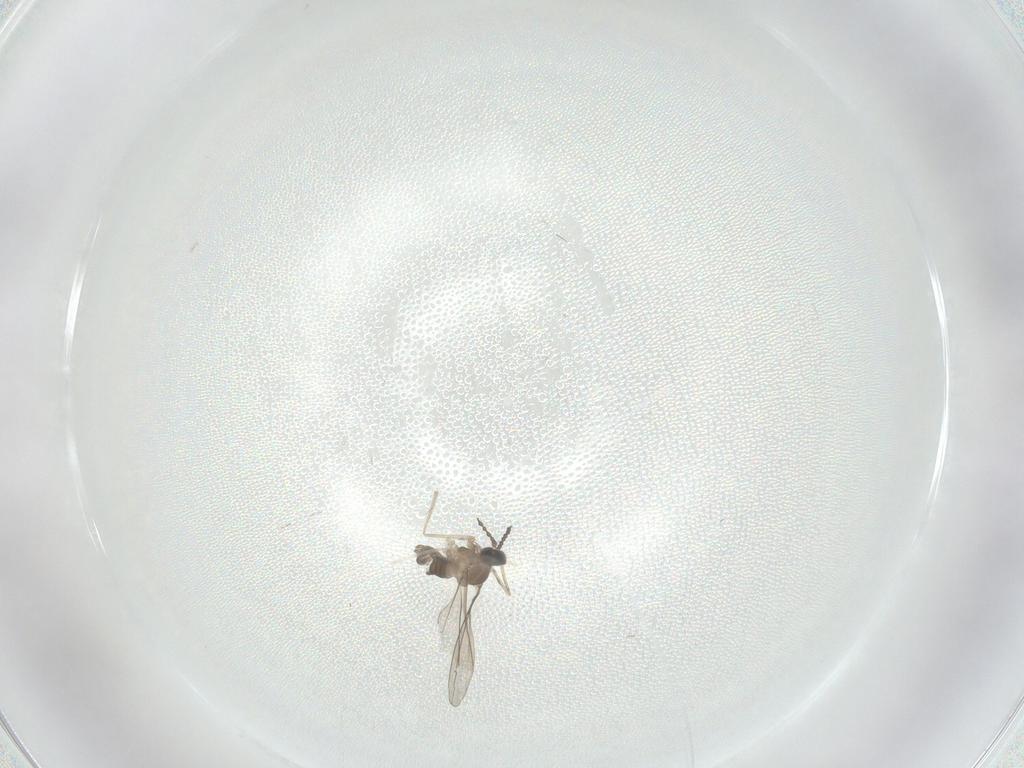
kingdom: Animalia
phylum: Arthropoda
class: Insecta
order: Diptera
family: Cecidomyiidae
